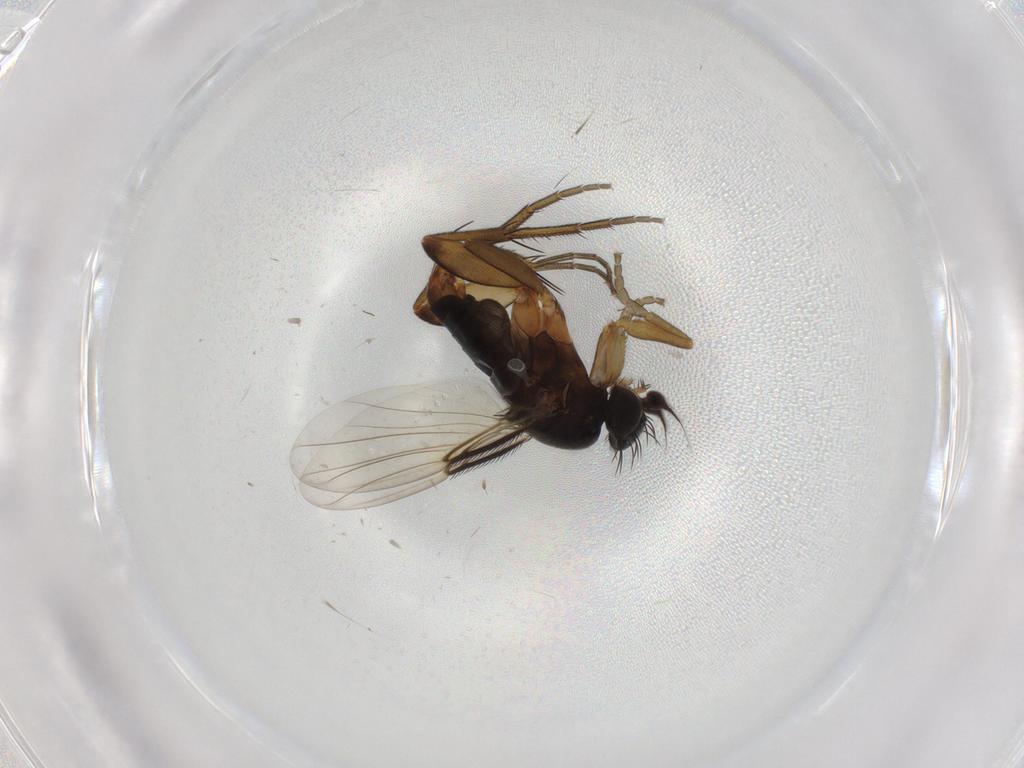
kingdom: Animalia
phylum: Arthropoda
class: Insecta
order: Diptera
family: Phoridae
